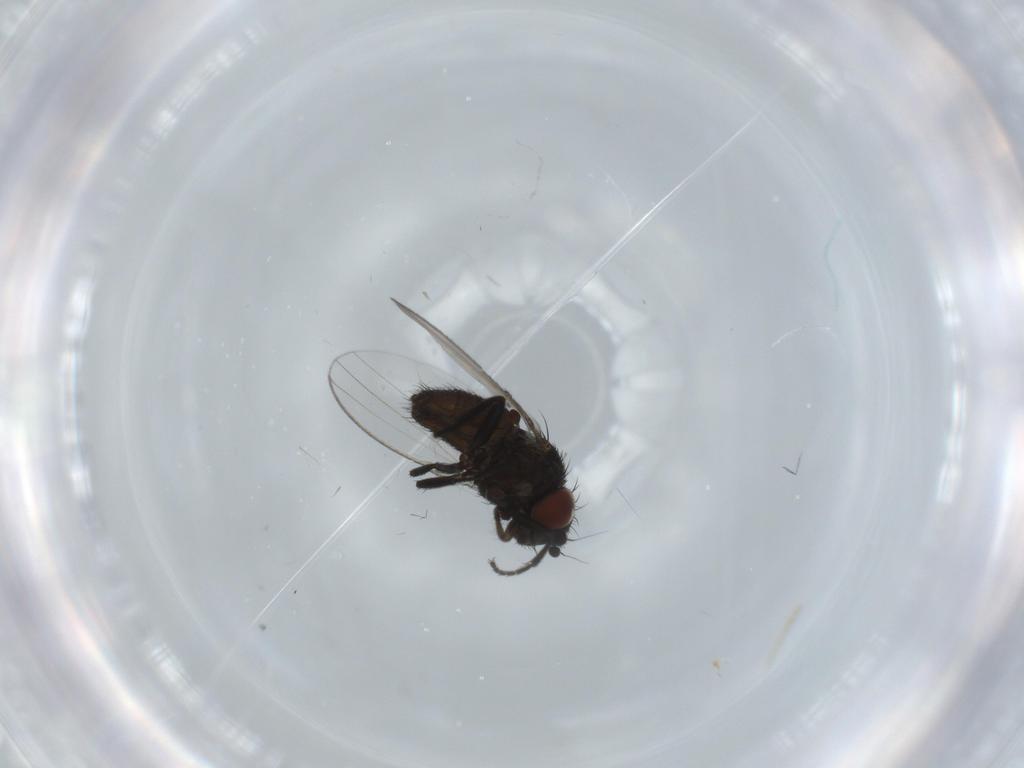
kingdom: Animalia
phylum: Arthropoda
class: Insecta
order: Diptera
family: Milichiidae
